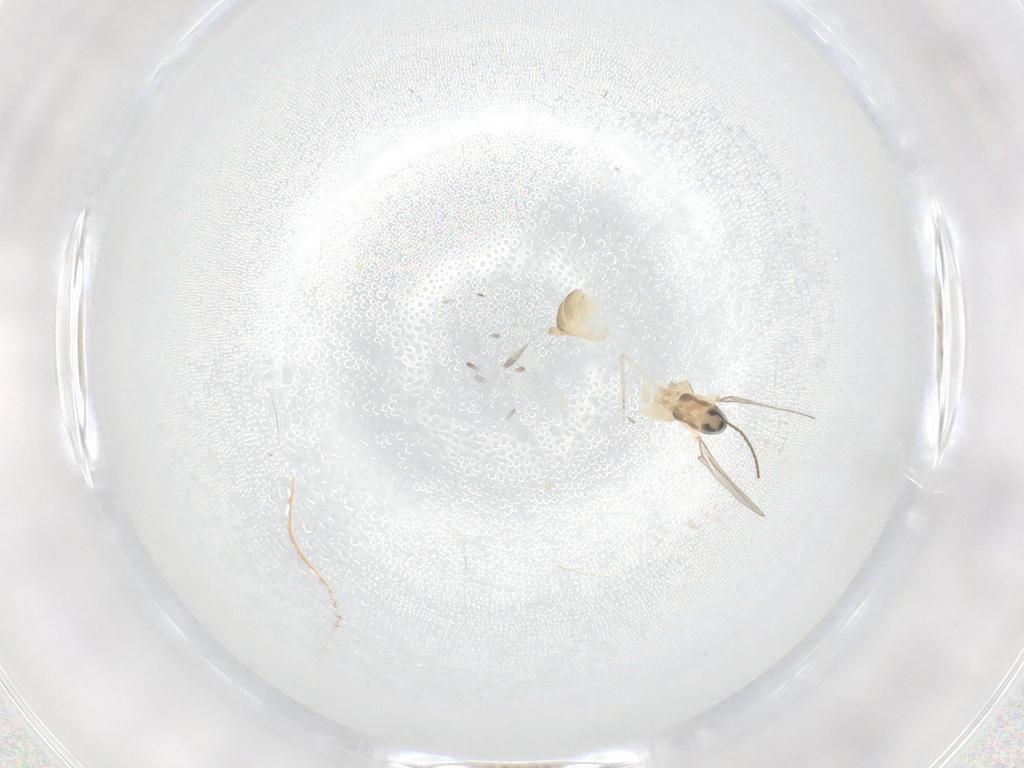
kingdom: Animalia
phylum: Arthropoda
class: Insecta
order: Diptera
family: Cecidomyiidae
